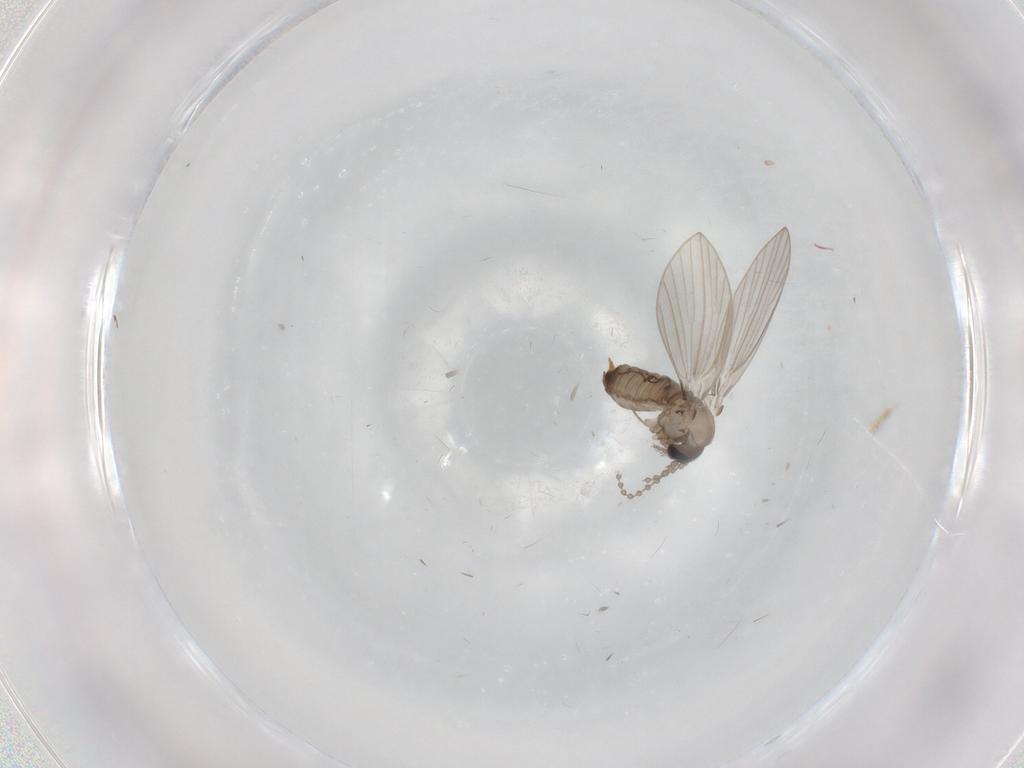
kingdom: Animalia
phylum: Arthropoda
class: Insecta
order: Diptera
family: Psychodidae
